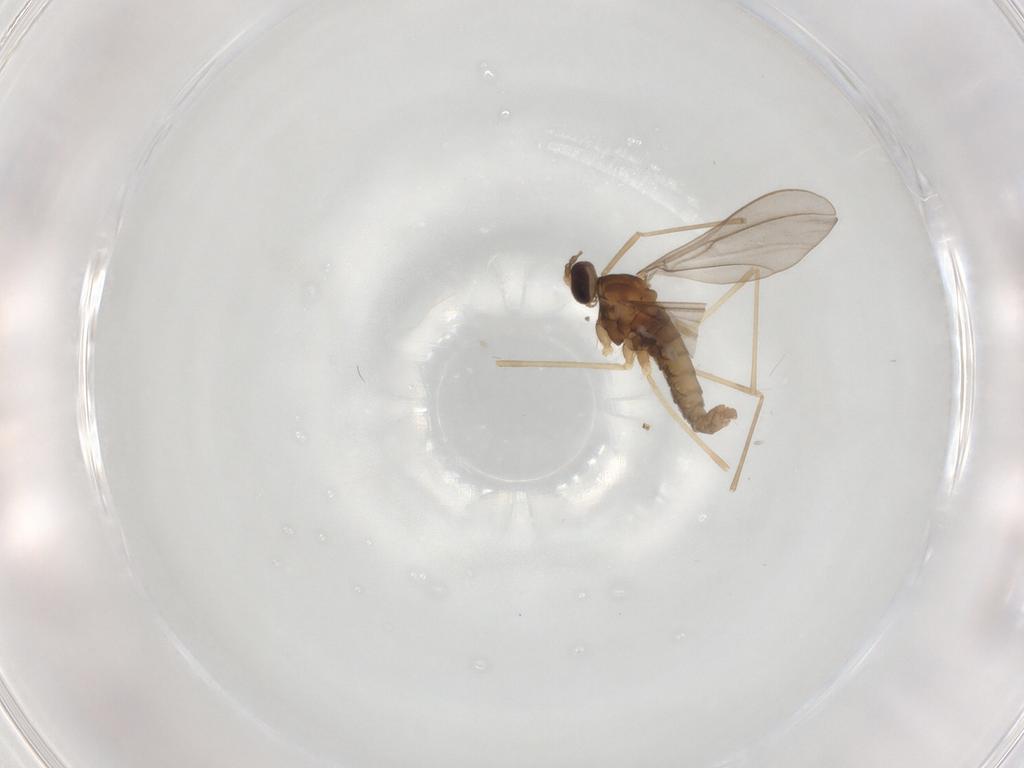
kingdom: Animalia
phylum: Arthropoda
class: Insecta
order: Diptera
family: Cecidomyiidae
